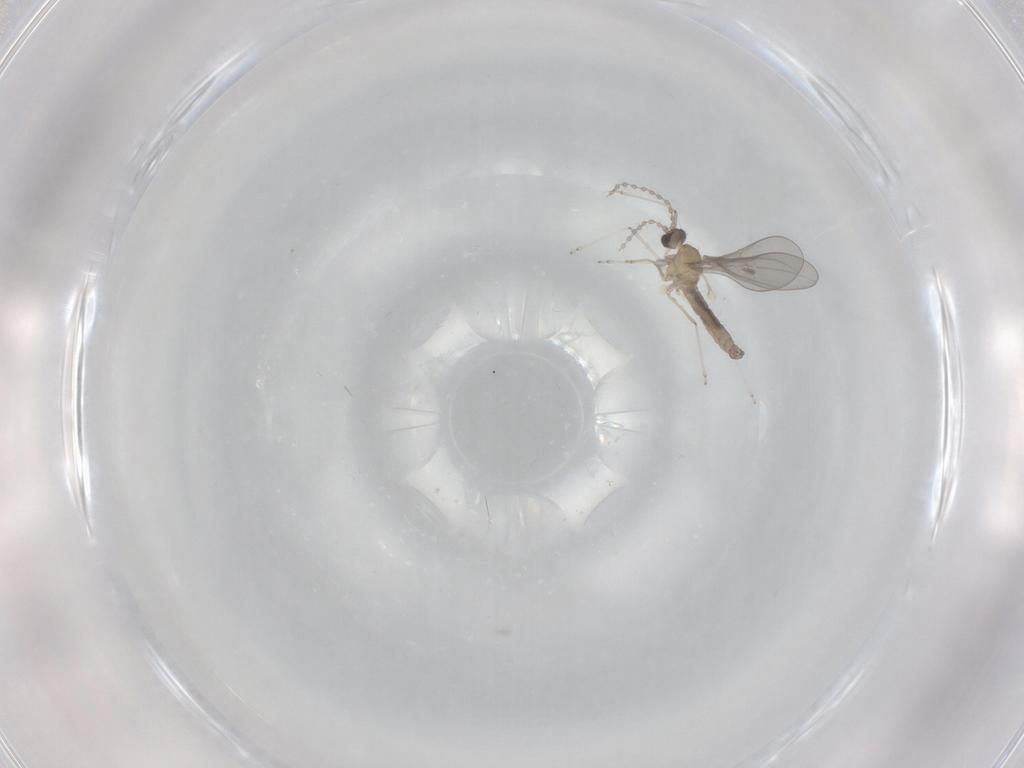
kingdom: Animalia
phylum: Arthropoda
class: Insecta
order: Diptera
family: Cecidomyiidae
